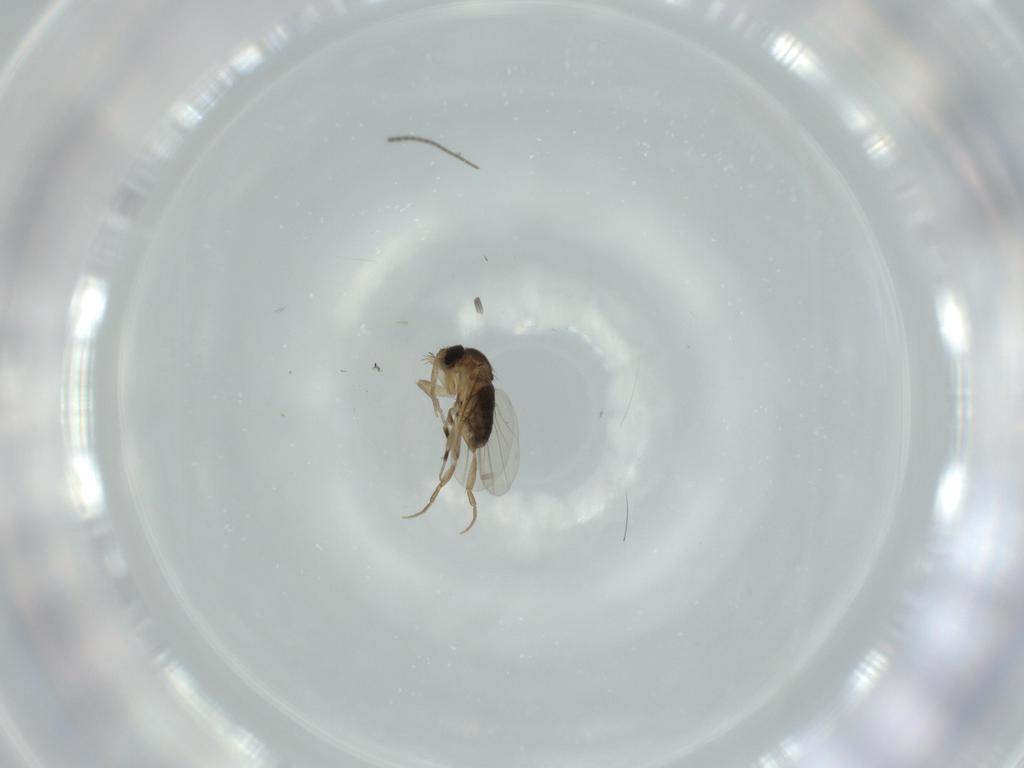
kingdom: Animalia
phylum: Arthropoda
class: Insecta
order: Diptera
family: Sciaridae
